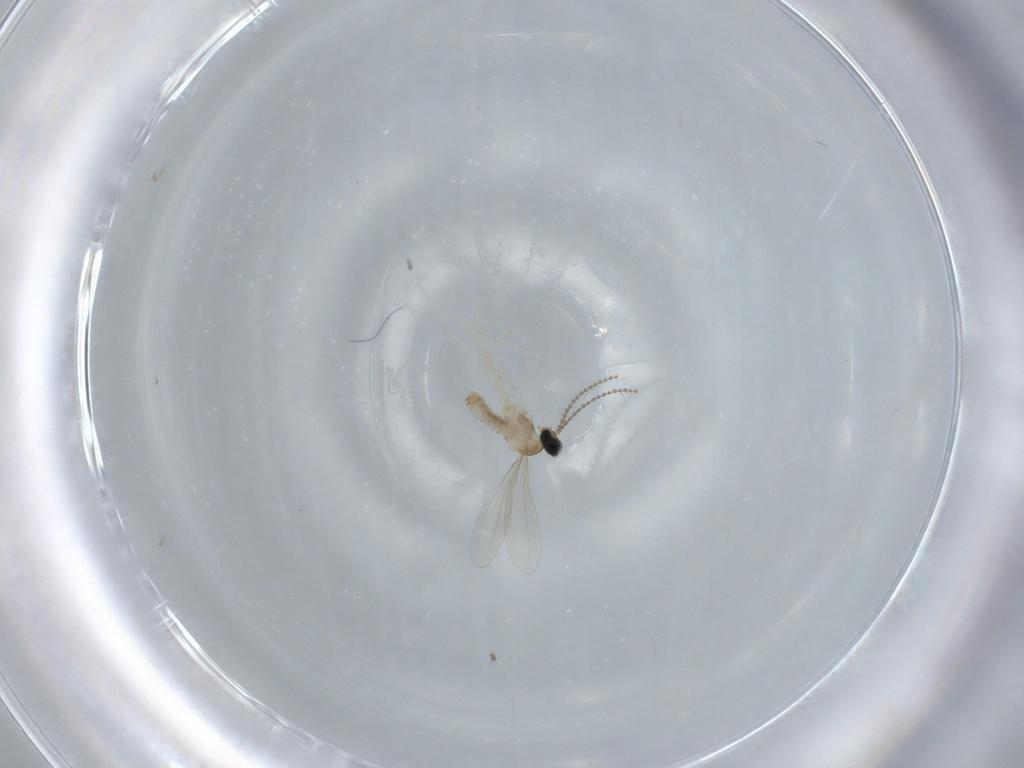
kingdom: Animalia
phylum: Arthropoda
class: Insecta
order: Diptera
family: Cecidomyiidae
